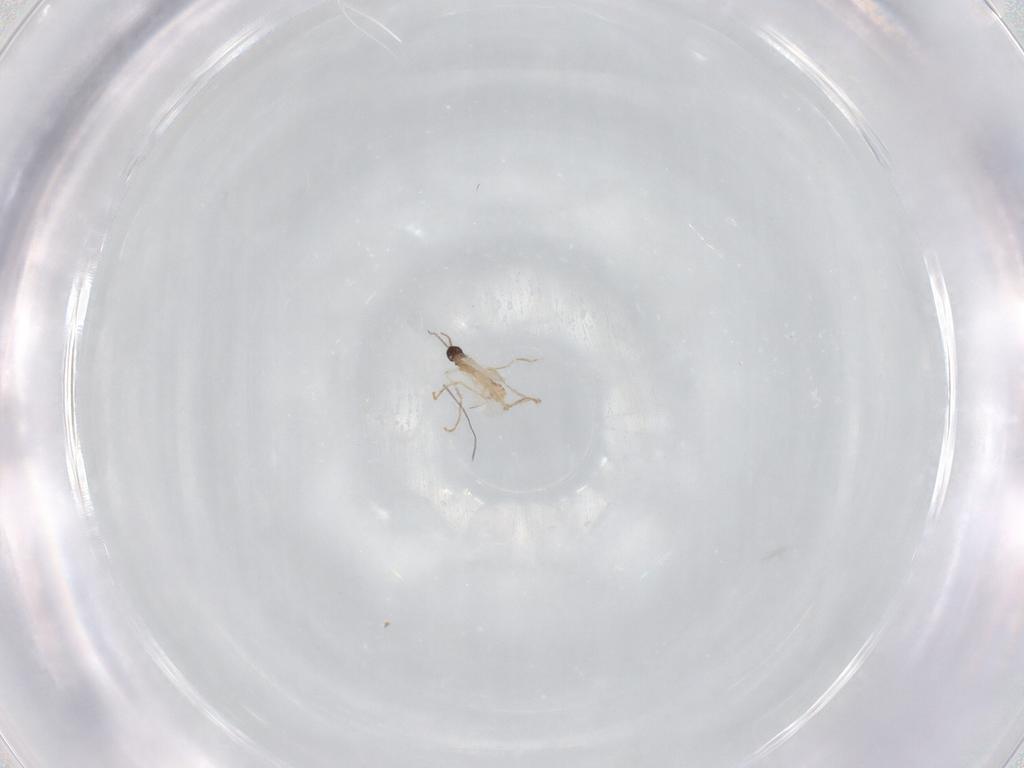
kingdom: Animalia
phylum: Arthropoda
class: Insecta
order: Diptera
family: Cecidomyiidae
